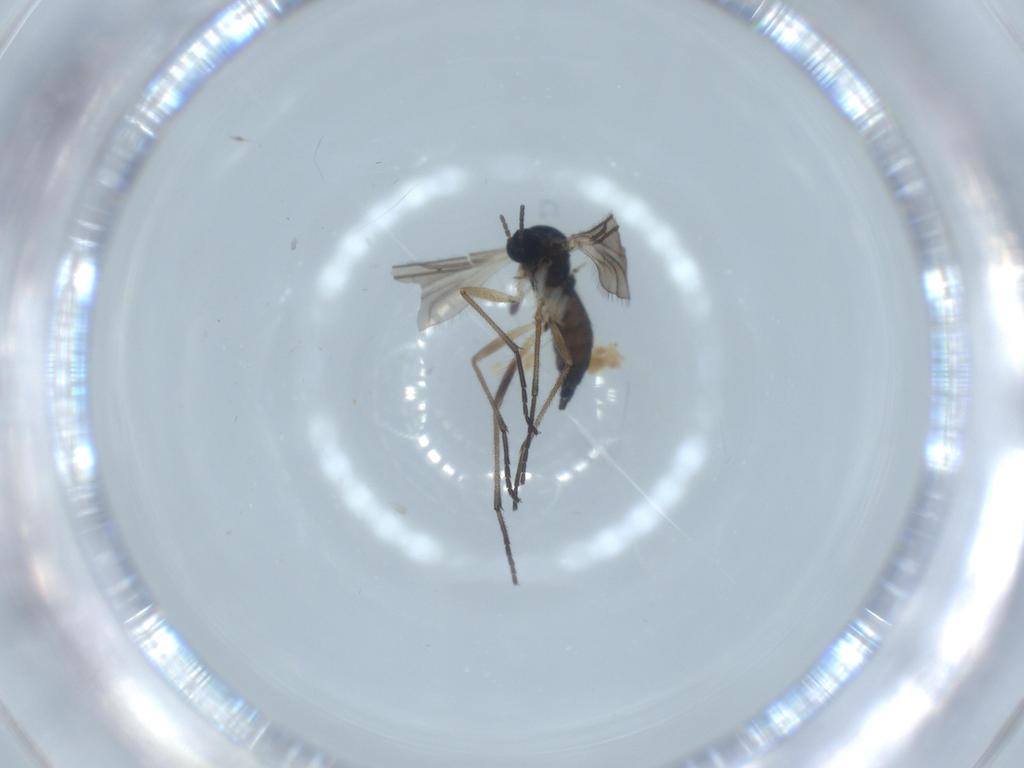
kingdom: Animalia
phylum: Arthropoda
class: Insecta
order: Diptera
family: Sciaridae
